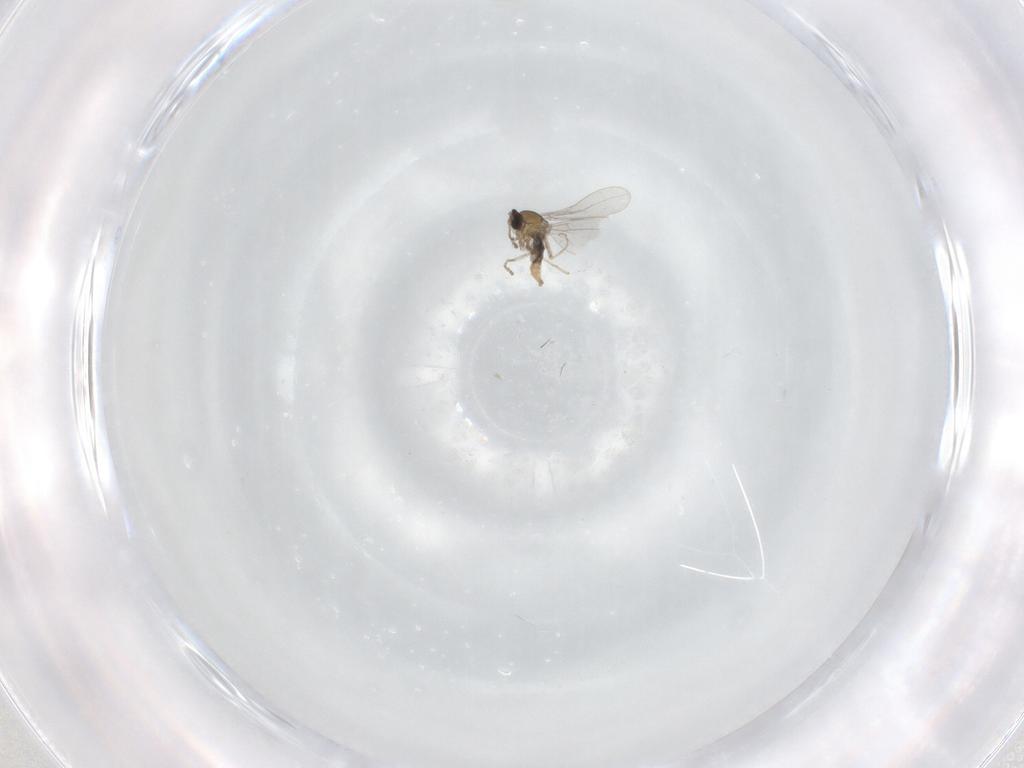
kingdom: Animalia
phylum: Arthropoda
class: Insecta
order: Diptera
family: Cecidomyiidae
